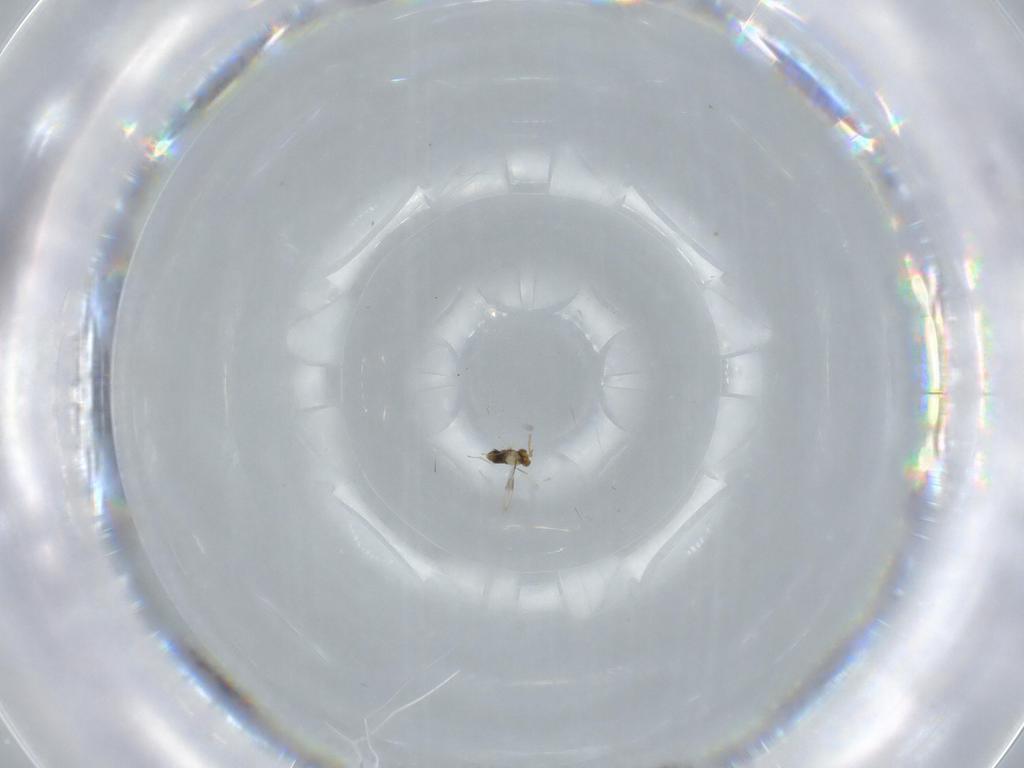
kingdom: Animalia
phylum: Arthropoda
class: Insecta
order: Hymenoptera
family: Aphelinidae
